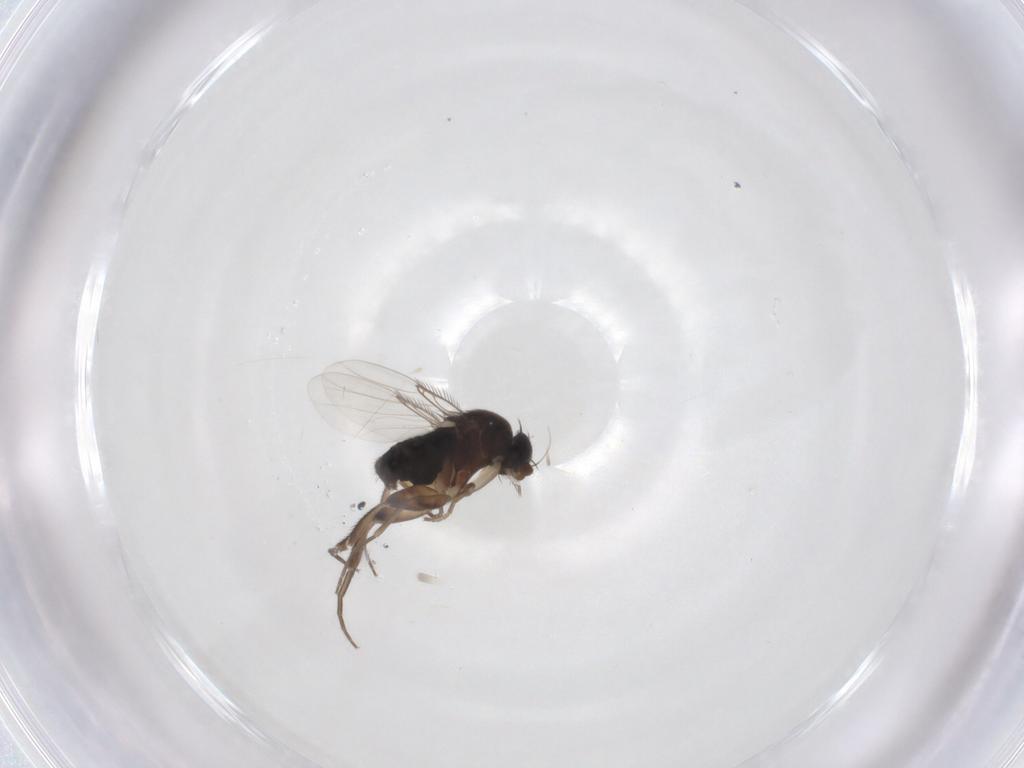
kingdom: Animalia
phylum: Arthropoda
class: Insecta
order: Diptera
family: Phoridae
